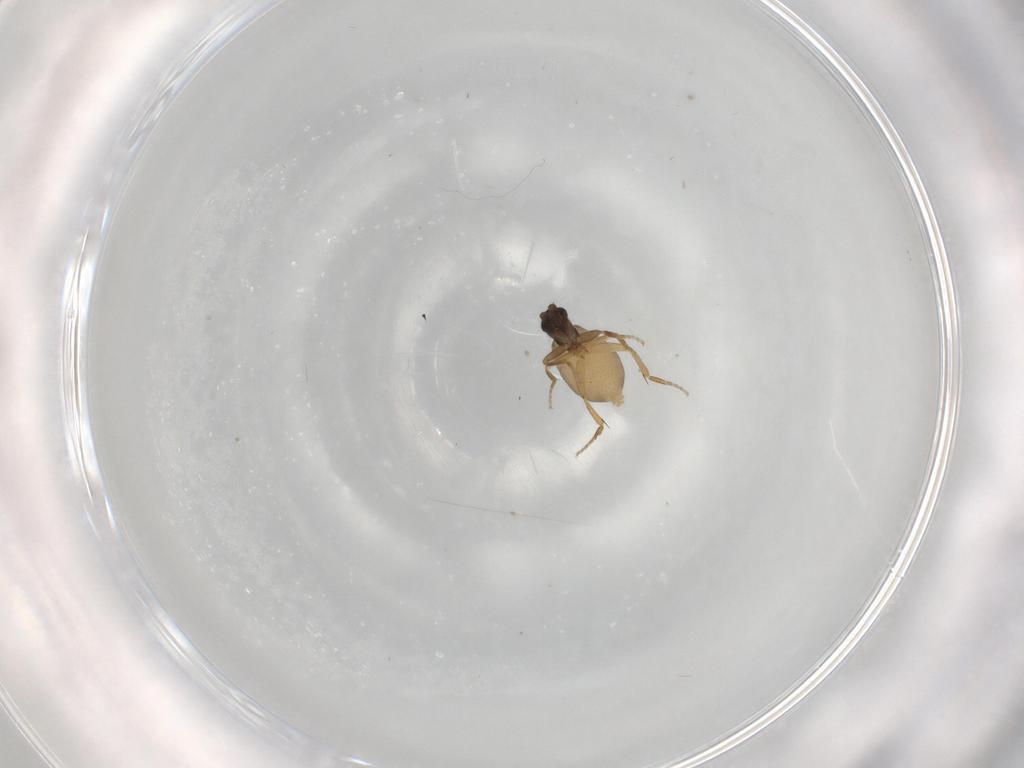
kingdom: Animalia
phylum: Arthropoda
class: Insecta
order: Diptera
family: Phoridae
